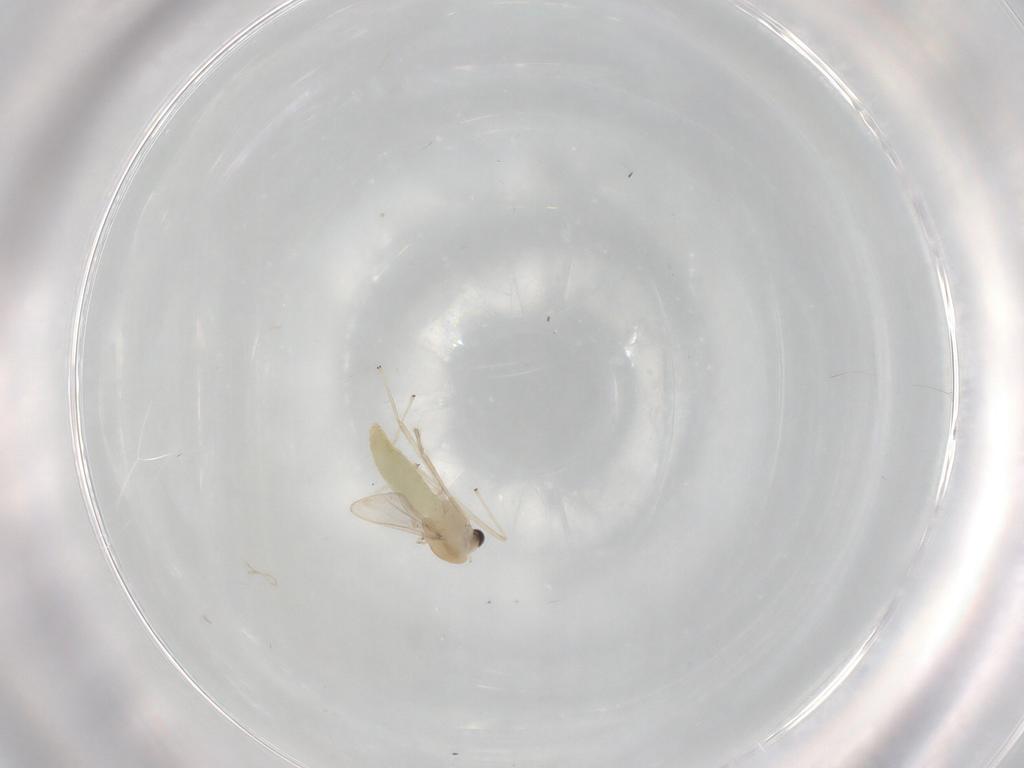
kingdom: Animalia
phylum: Arthropoda
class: Insecta
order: Diptera
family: Chironomidae
